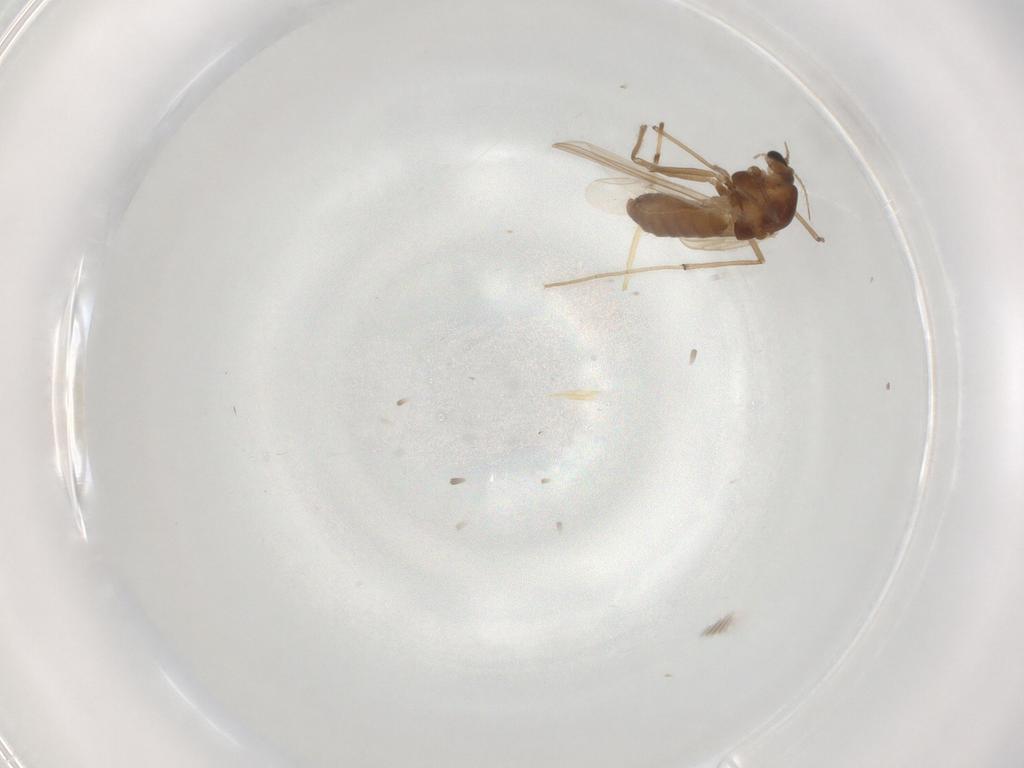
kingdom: Animalia
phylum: Arthropoda
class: Insecta
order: Diptera
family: Chironomidae
